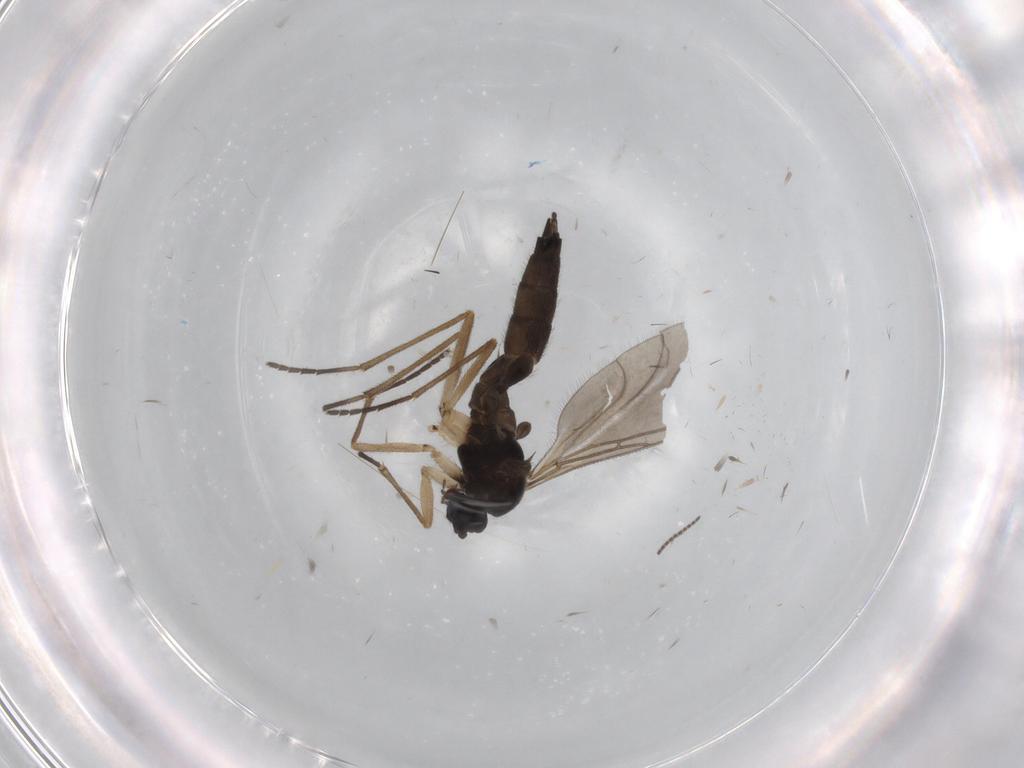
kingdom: Animalia
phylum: Arthropoda
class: Insecta
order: Diptera
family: Sciaridae
